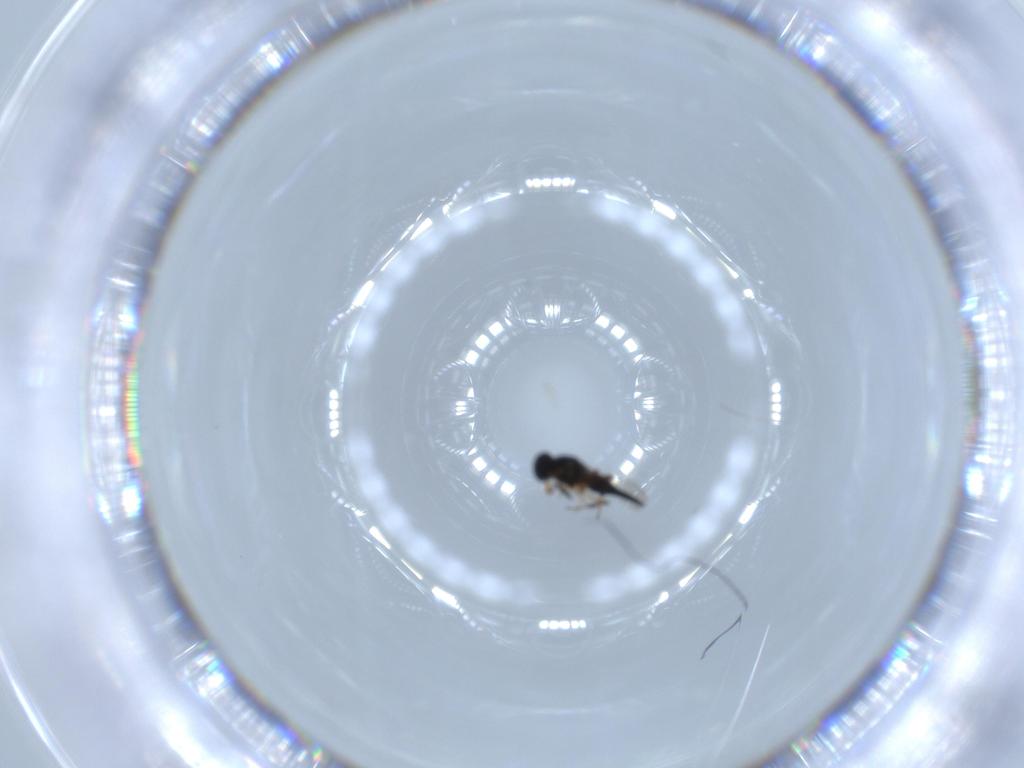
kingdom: Animalia
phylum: Arthropoda
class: Insecta
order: Hymenoptera
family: Platygastridae
